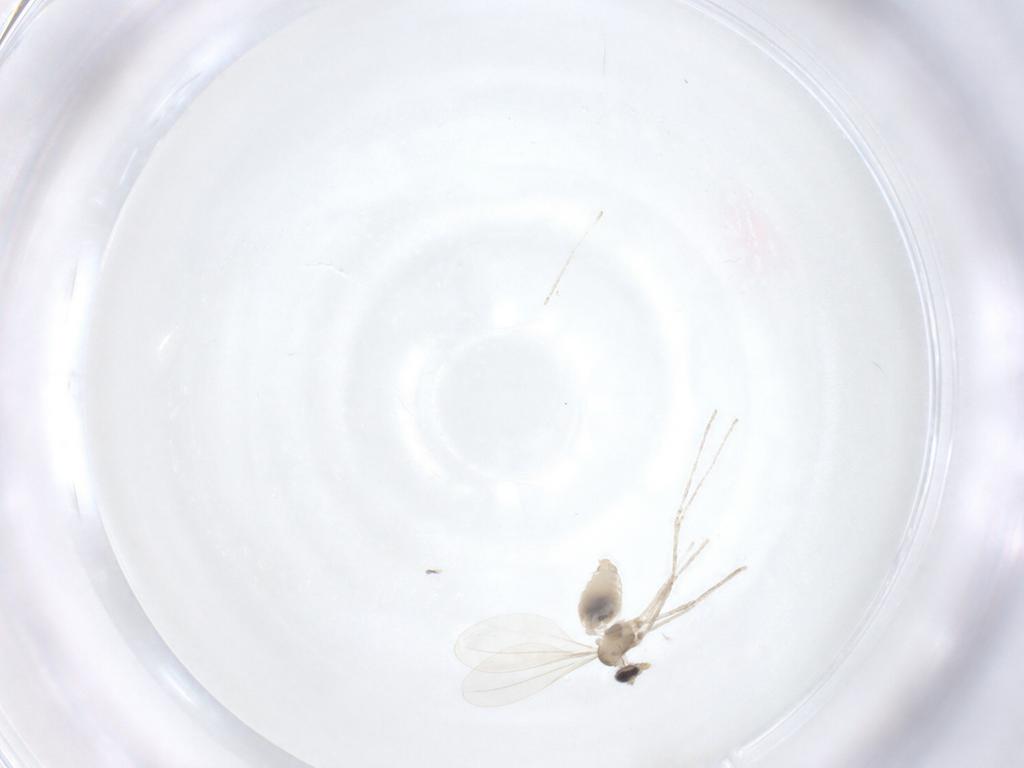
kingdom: Animalia
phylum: Arthropoda
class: Insecta
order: Diptera
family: Cecidomyiidae
